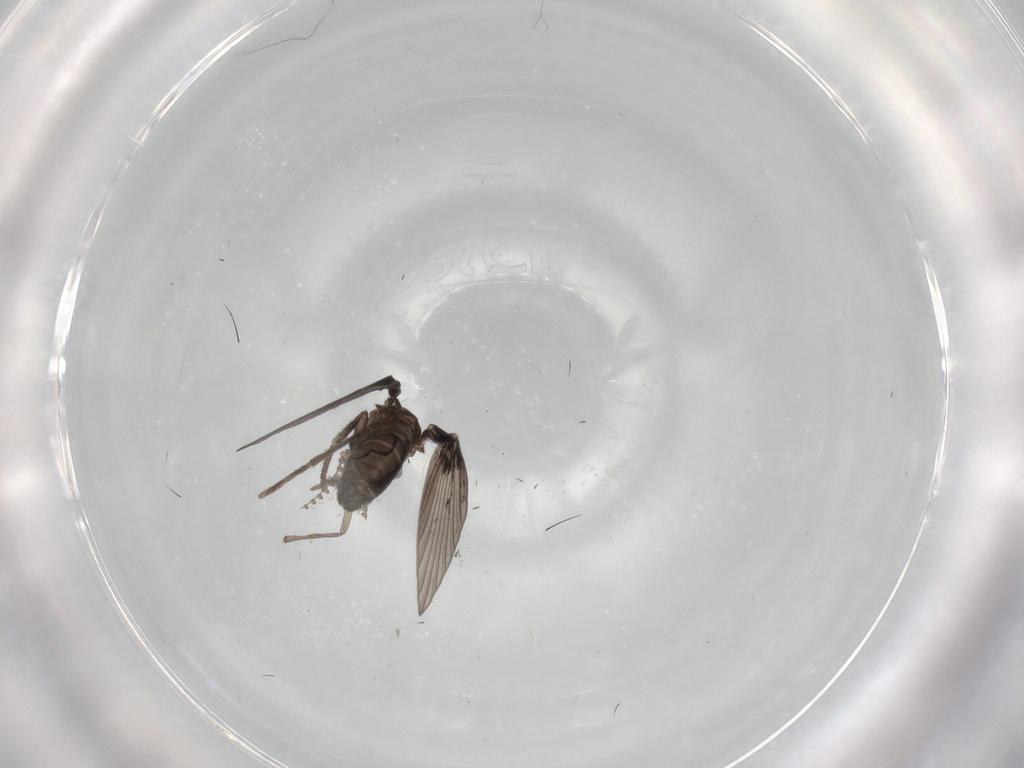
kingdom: Animalia
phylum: Arthropoda
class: Insecta
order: Diptera
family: Psychodidae
